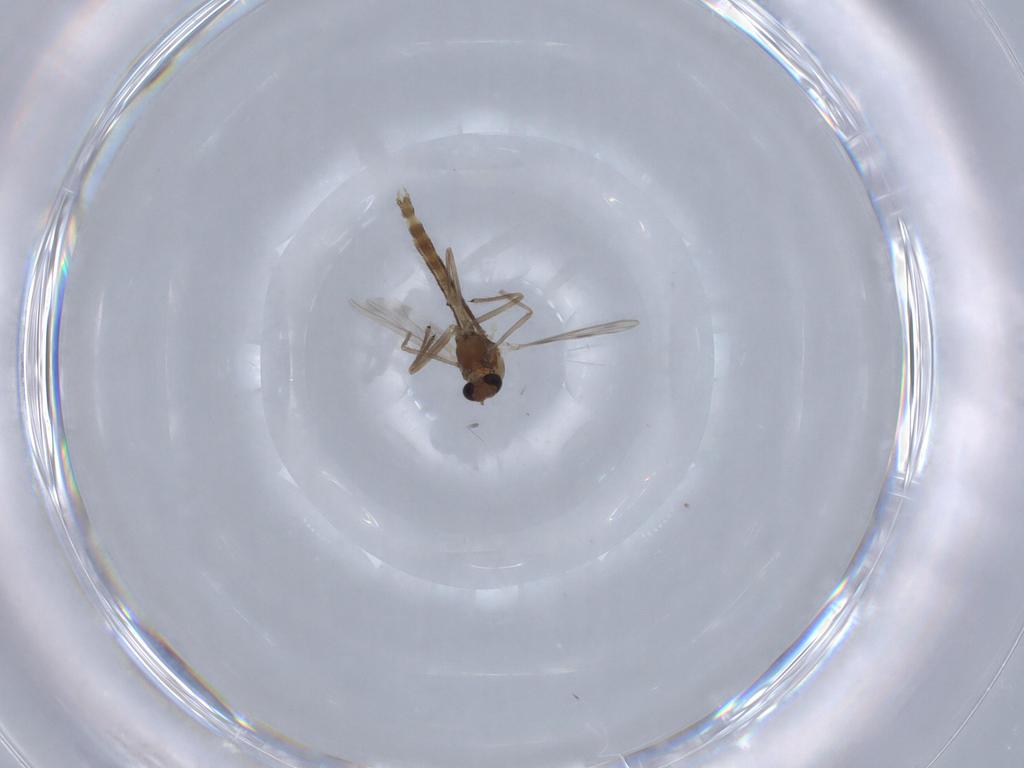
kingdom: Animalia
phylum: Arthropoda
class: Insecta
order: Diptera
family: Chironomidae
